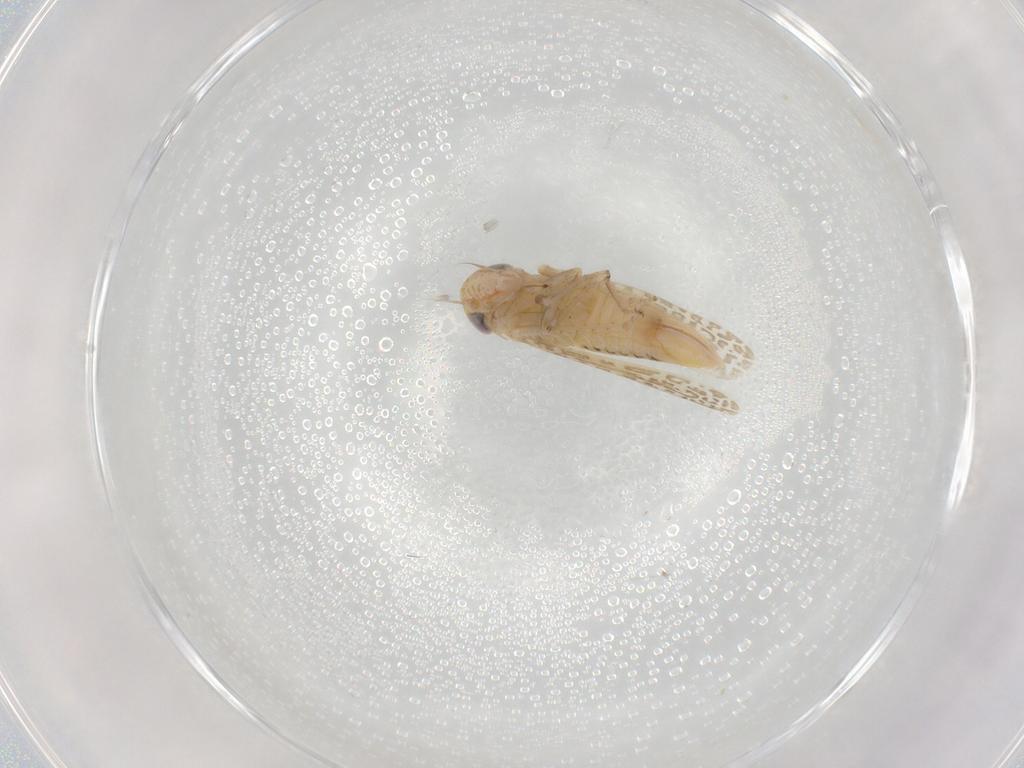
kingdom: Animalia
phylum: Arthropoda
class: Insecta
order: Hemiptera
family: Cicadellidae
